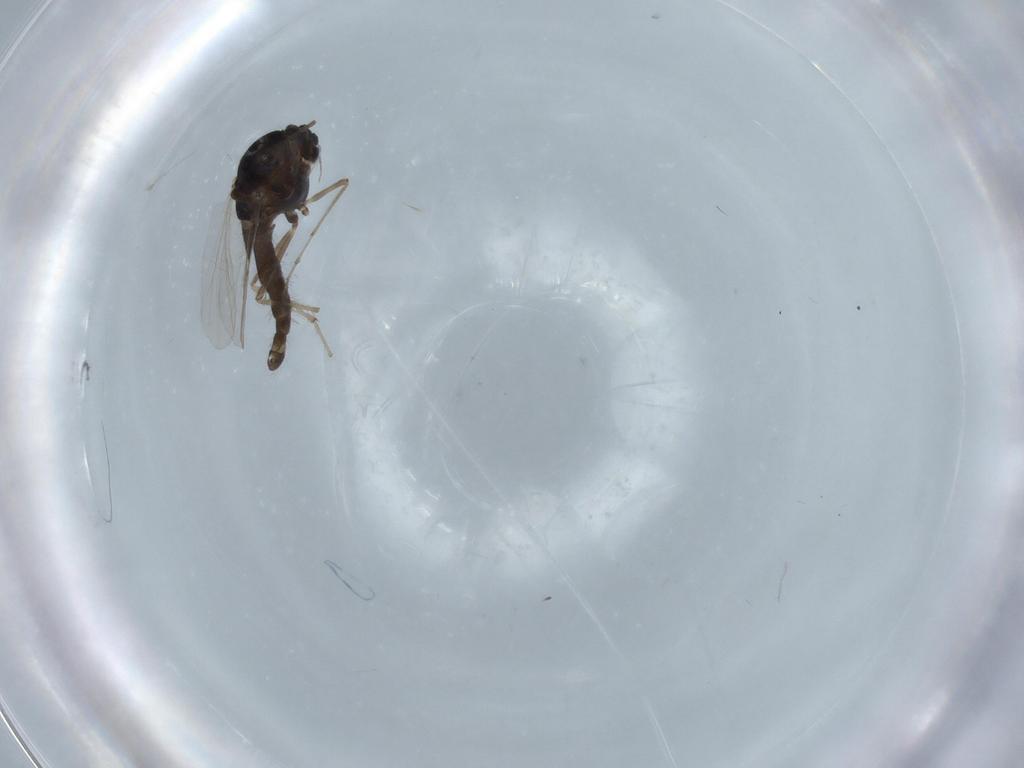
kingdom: Animalia
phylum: Arthropoda
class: Insecta
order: Diptera
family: Chironomidae
